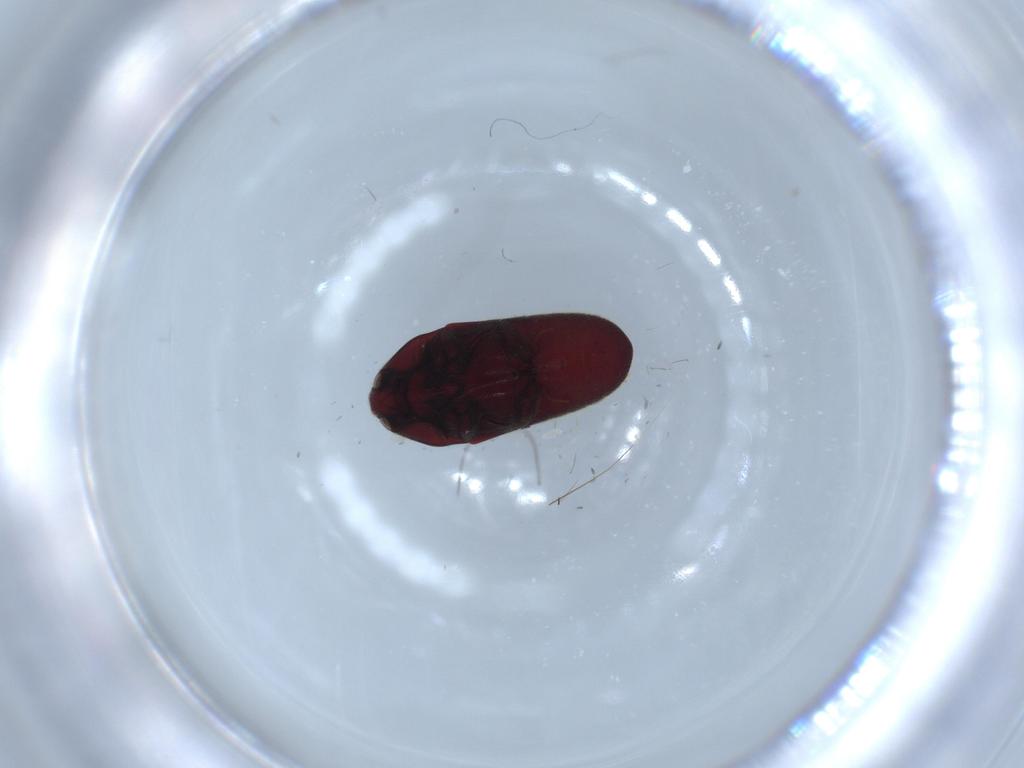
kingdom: Animalia
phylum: Arthropoda
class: Insecta
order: Coleoptera
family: Throscidae
